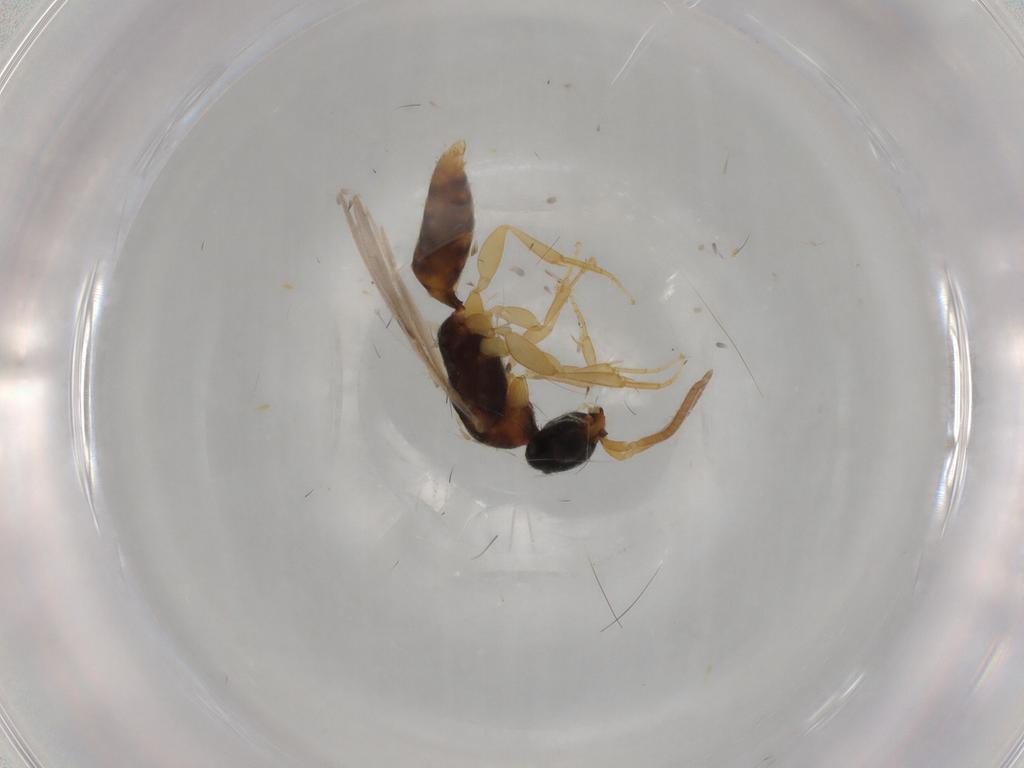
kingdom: Animalia
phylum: Arthropoda
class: Insecta
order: Hymenoptera
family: Bethylidae
